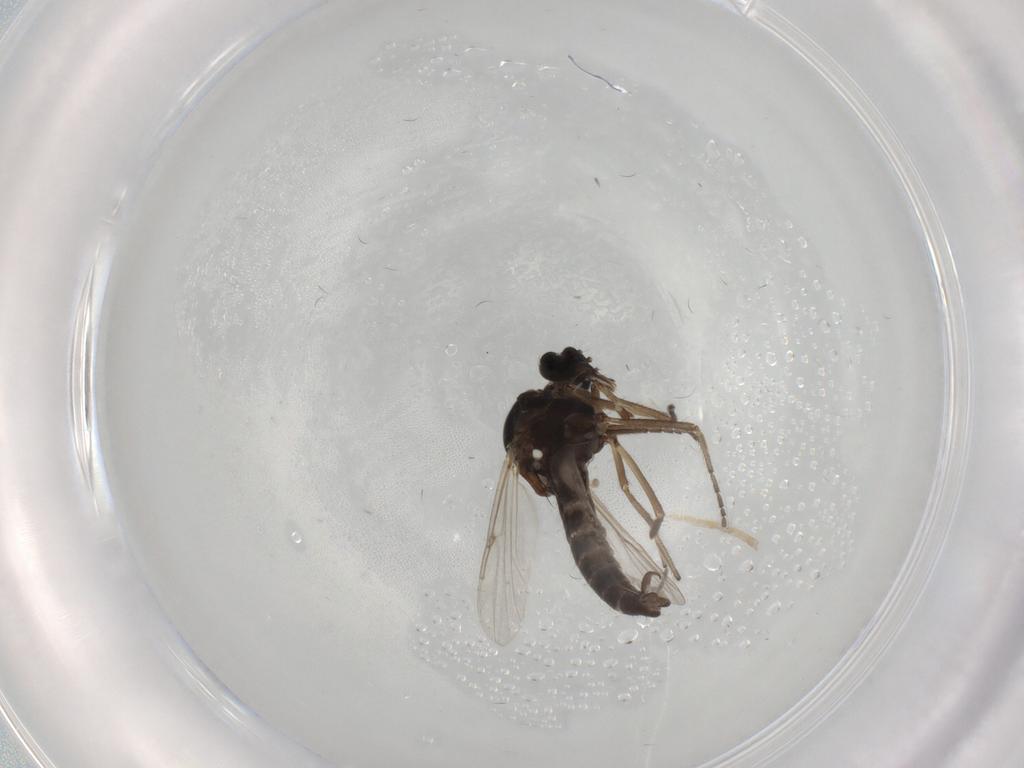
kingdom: Animalia
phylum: Arthropoda
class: Insecta
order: Diptera
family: Ceratopogonidae
